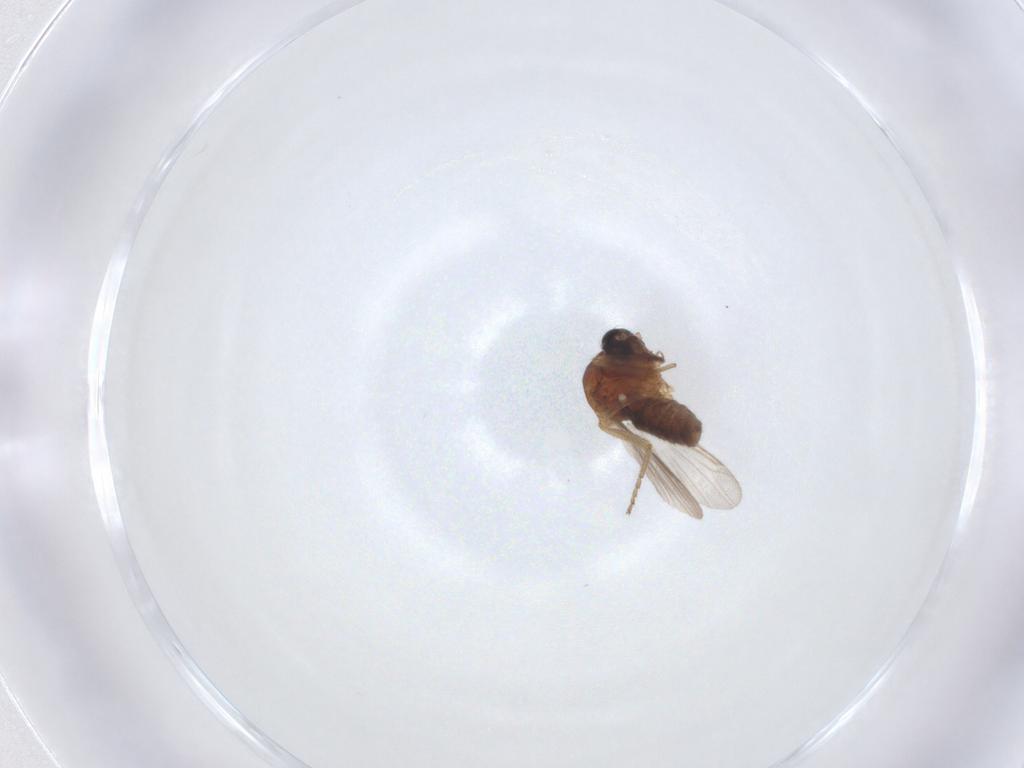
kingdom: Animalia
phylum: Arthropoda
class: Insecta
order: Diptera
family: Ceratopogonidae
